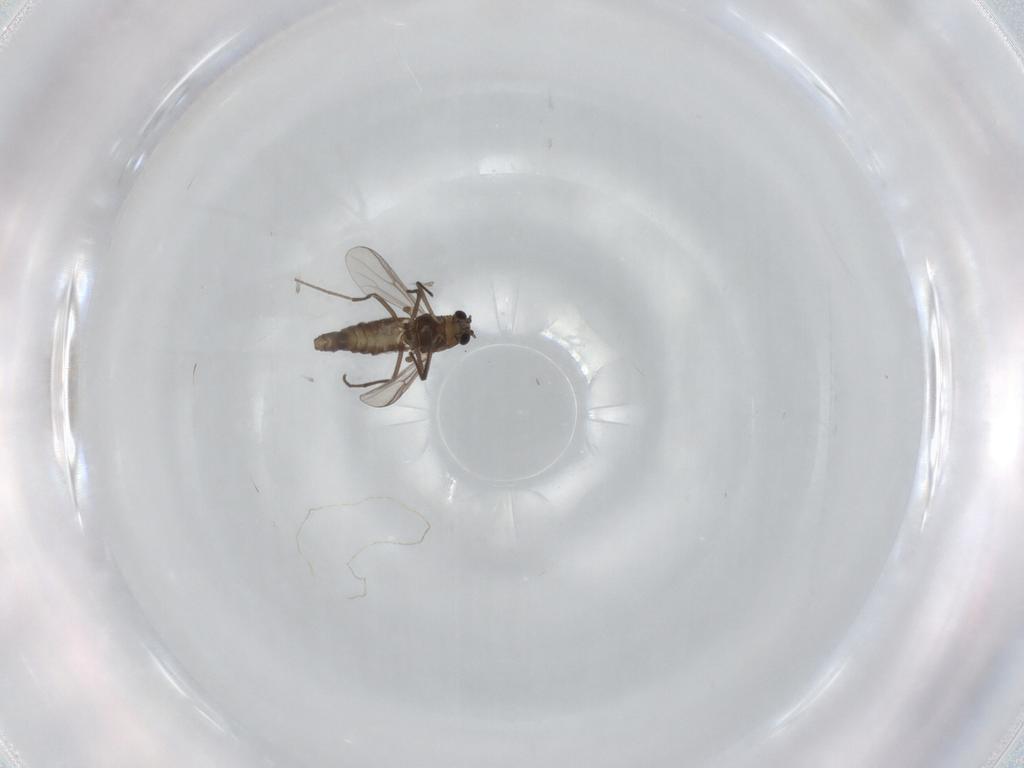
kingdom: Animalia
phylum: Arthropoda
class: Insecta
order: Diptera
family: Chironomidae
